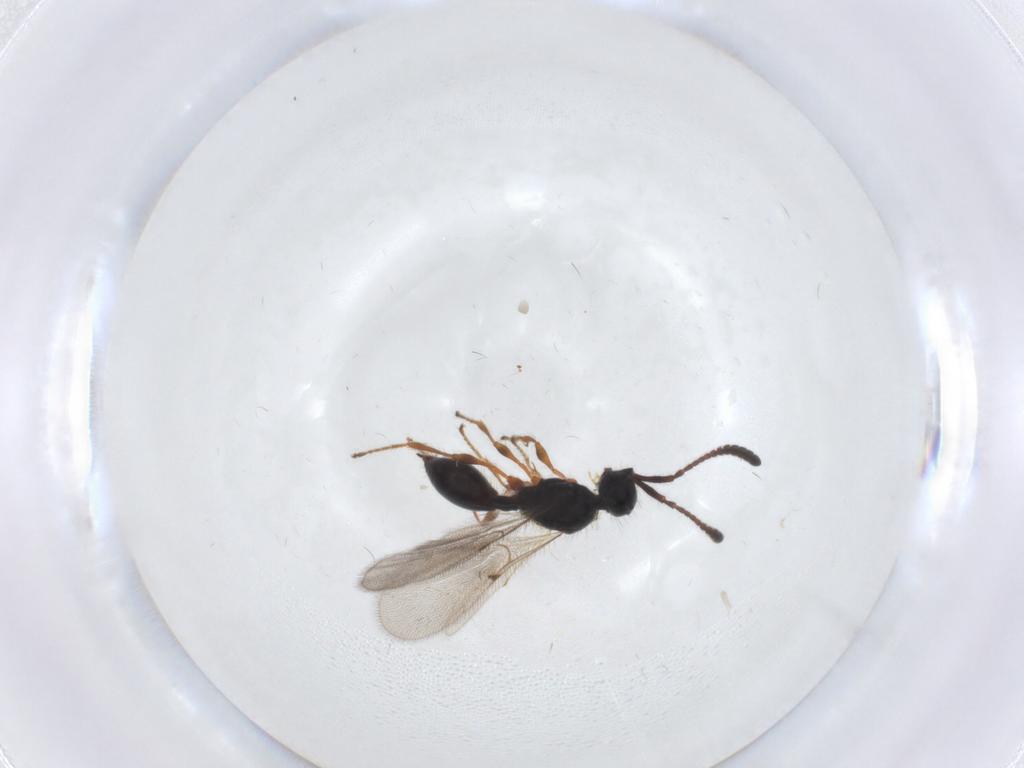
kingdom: Animalia
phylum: Arthropoda
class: Insecta
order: Hymenoptera
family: Diapriidae
